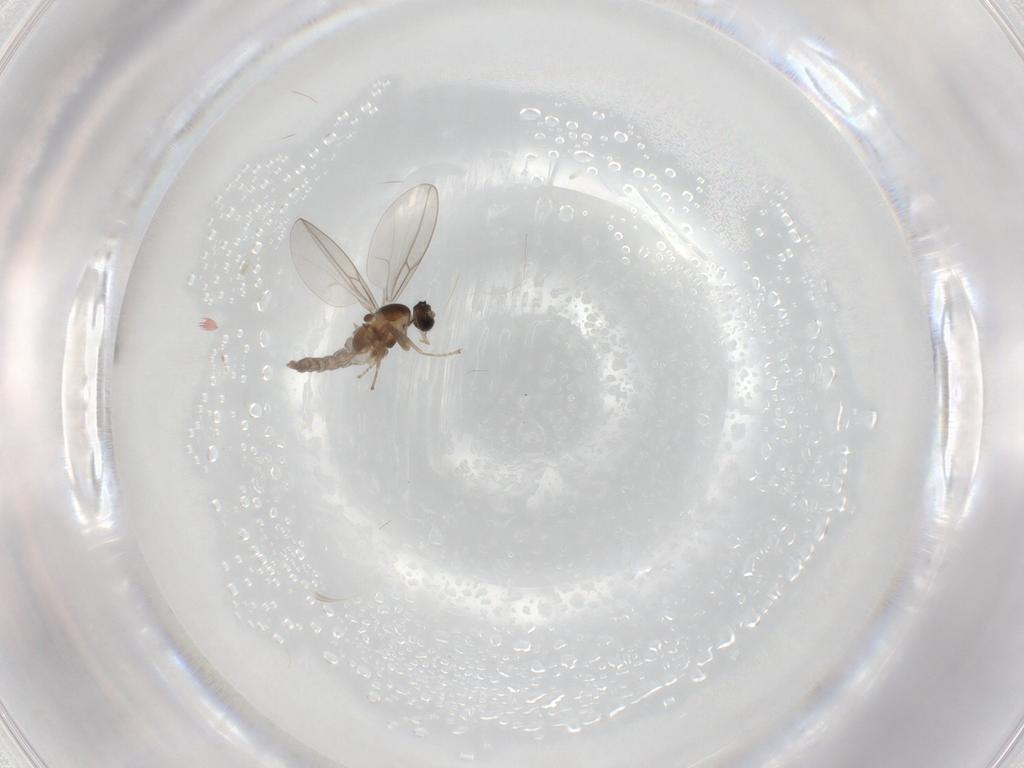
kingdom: Animalia
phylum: Arthropoda
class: Insecta
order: Diptera
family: Cecidomyiidae
